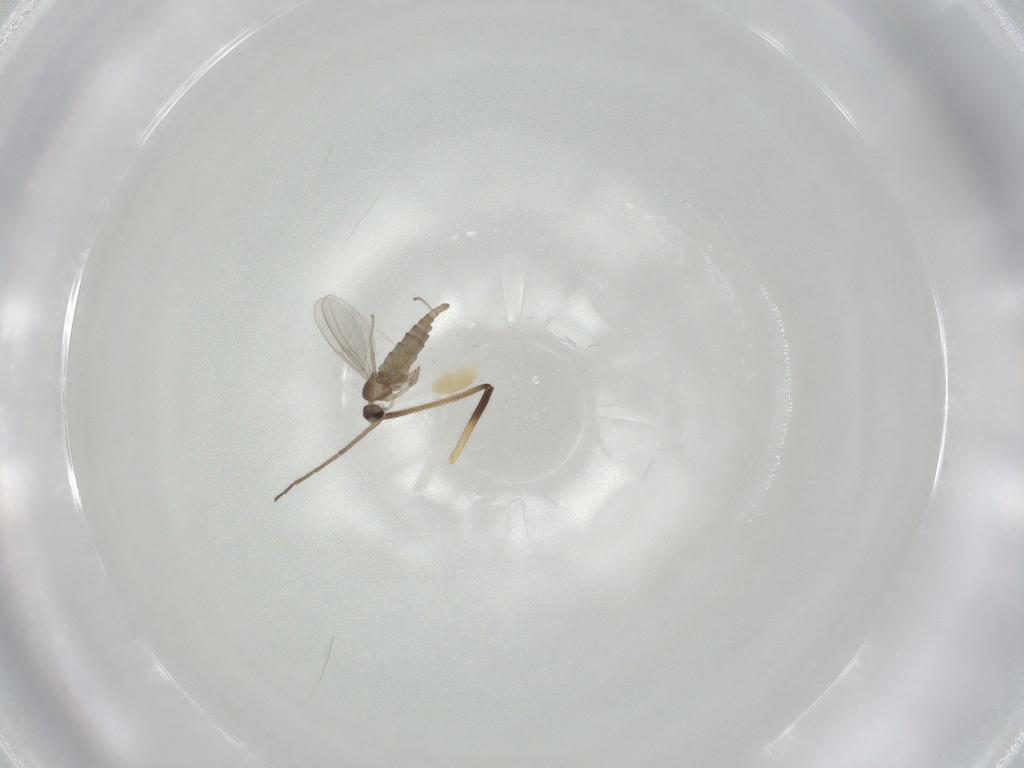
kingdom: Animalia
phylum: Arthropoda
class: Arachnida
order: Trombidiformes
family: Eupodidae
